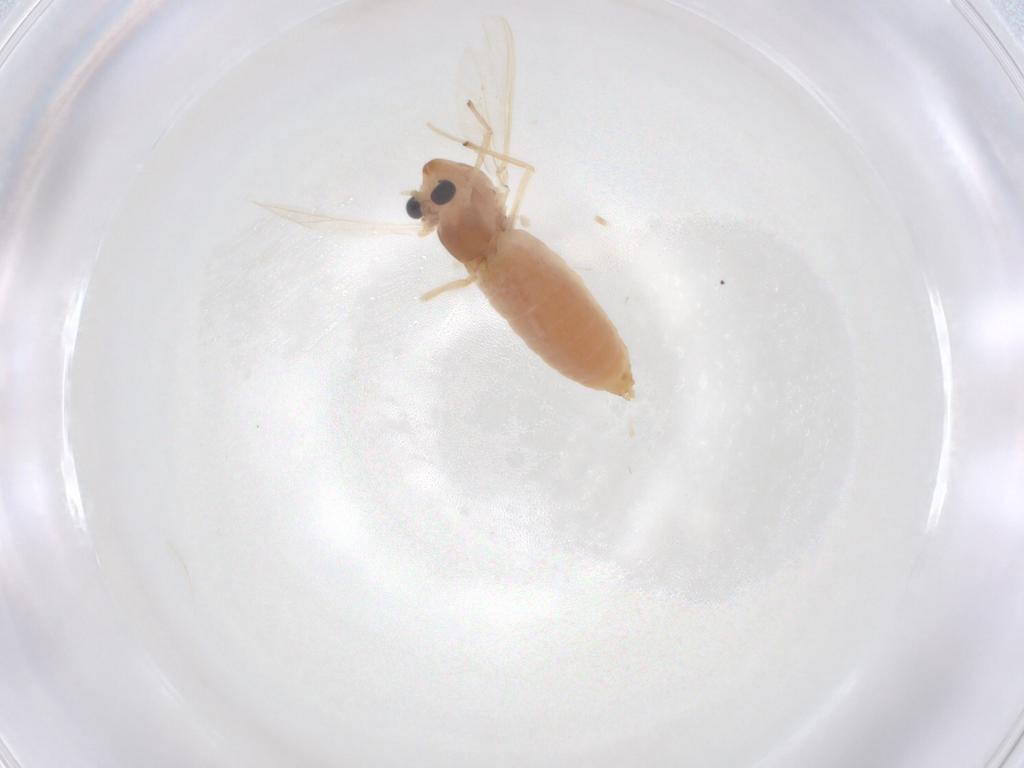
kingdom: Animalia
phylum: Arthropoda
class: Insecta
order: Diptera
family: Chironomidae
